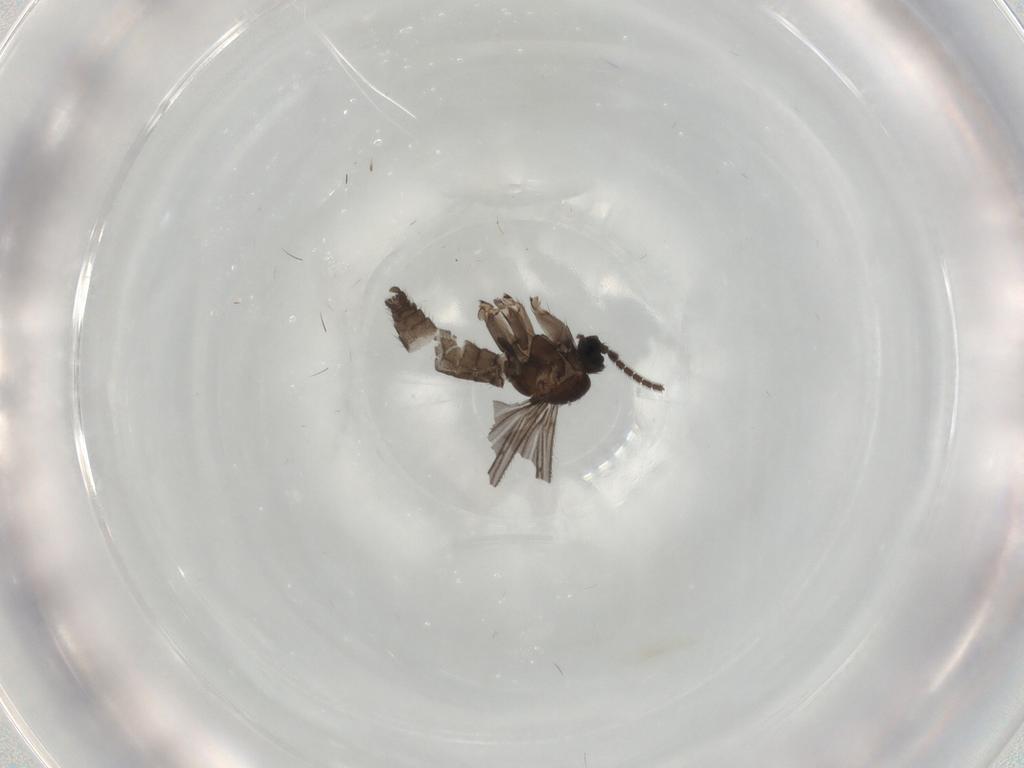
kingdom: Animalia
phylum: Arthropoda
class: Insecta
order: Diptera
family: Sciaridae
